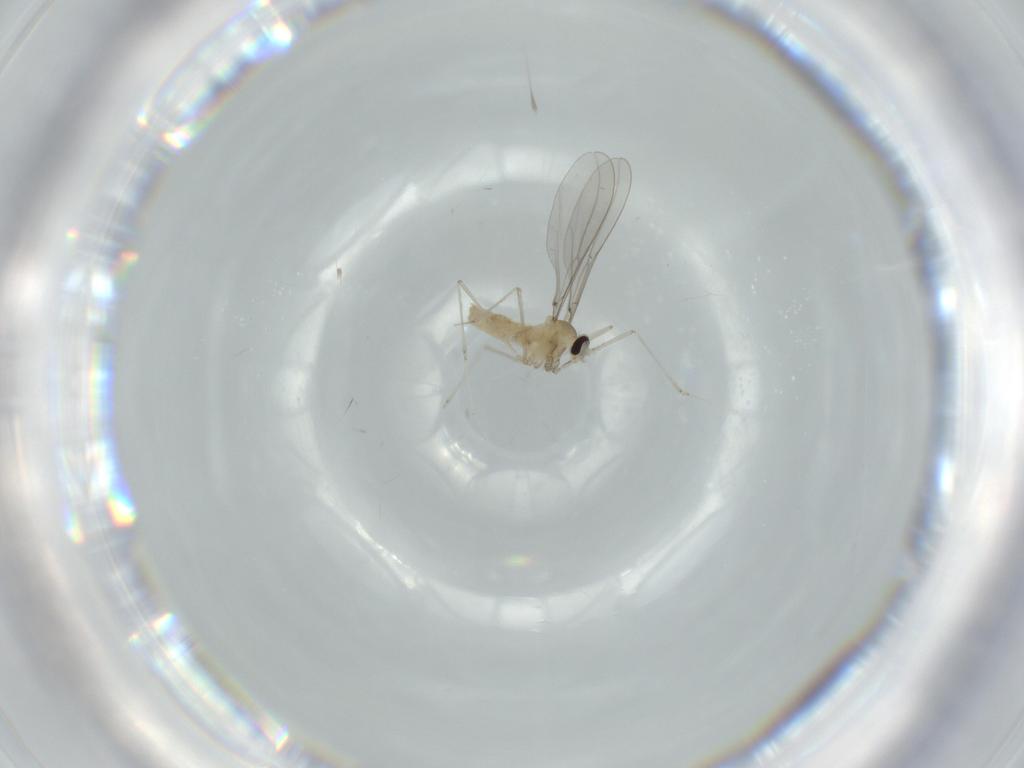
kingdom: Animalia
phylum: Arthropoda
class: Insecta
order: Diptera
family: Cecidomyiidae
